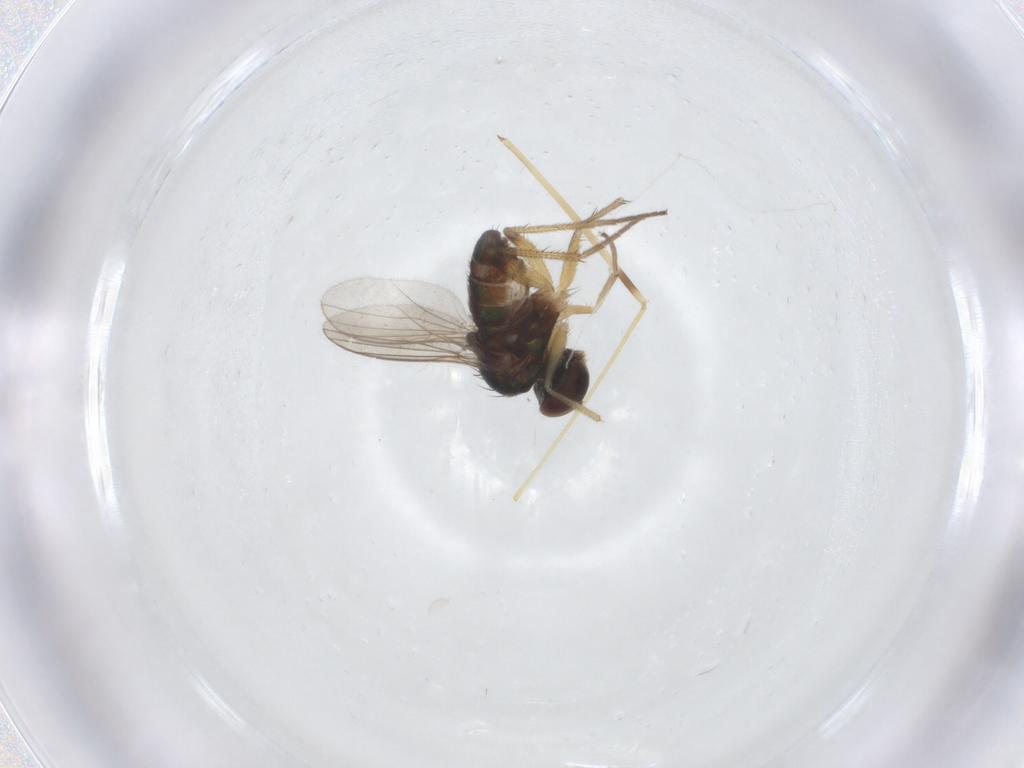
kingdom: Animalia
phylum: Arthropoda
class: Insecta
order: Diptera
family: Dolichopodidae
